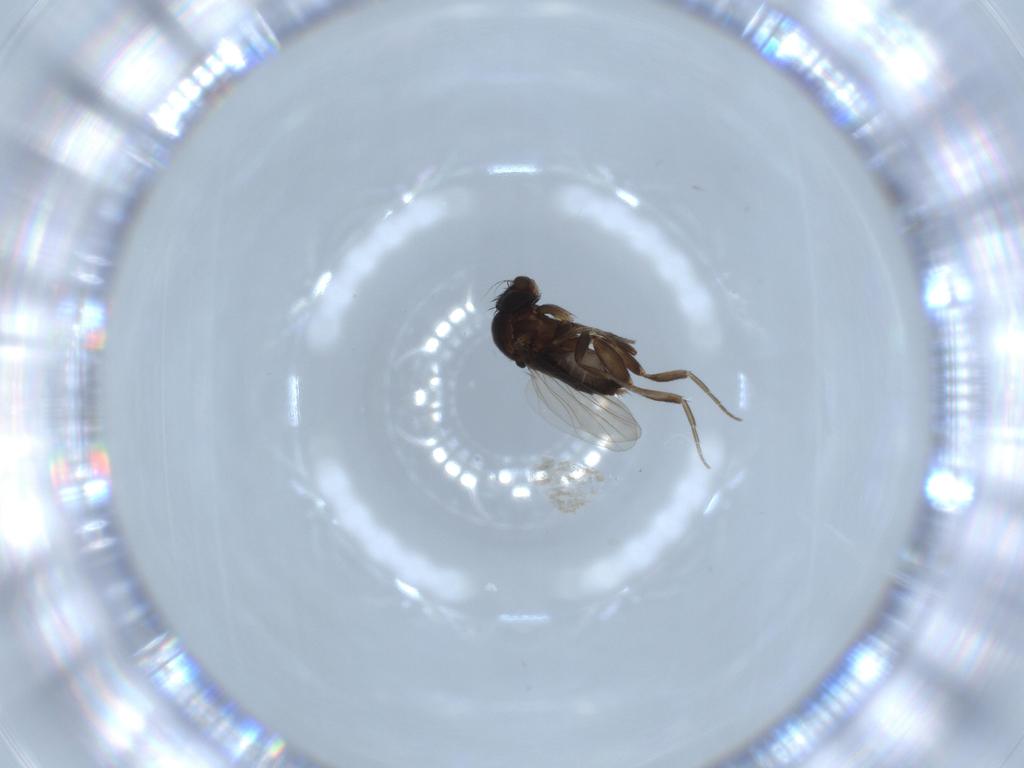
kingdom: Animalia
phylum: Arthropoda
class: Insecta
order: Diptera
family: Phoridae
